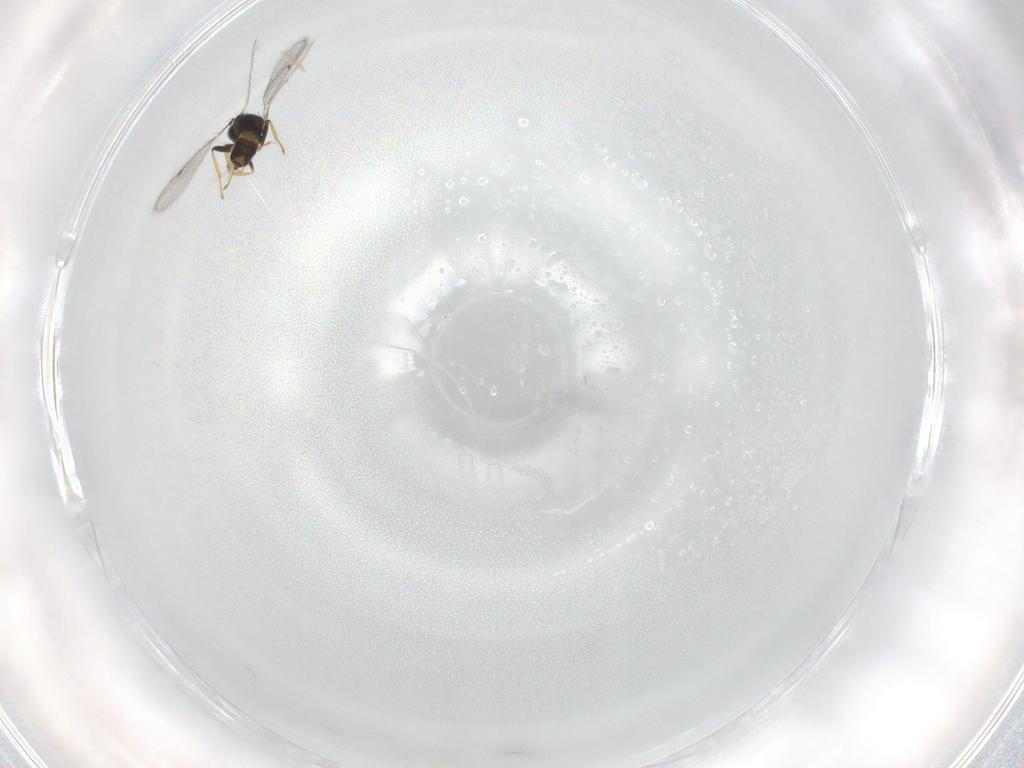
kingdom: Animalia
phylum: Arthropoda
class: Insecta
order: Hymenoptera
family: Eulophidae
